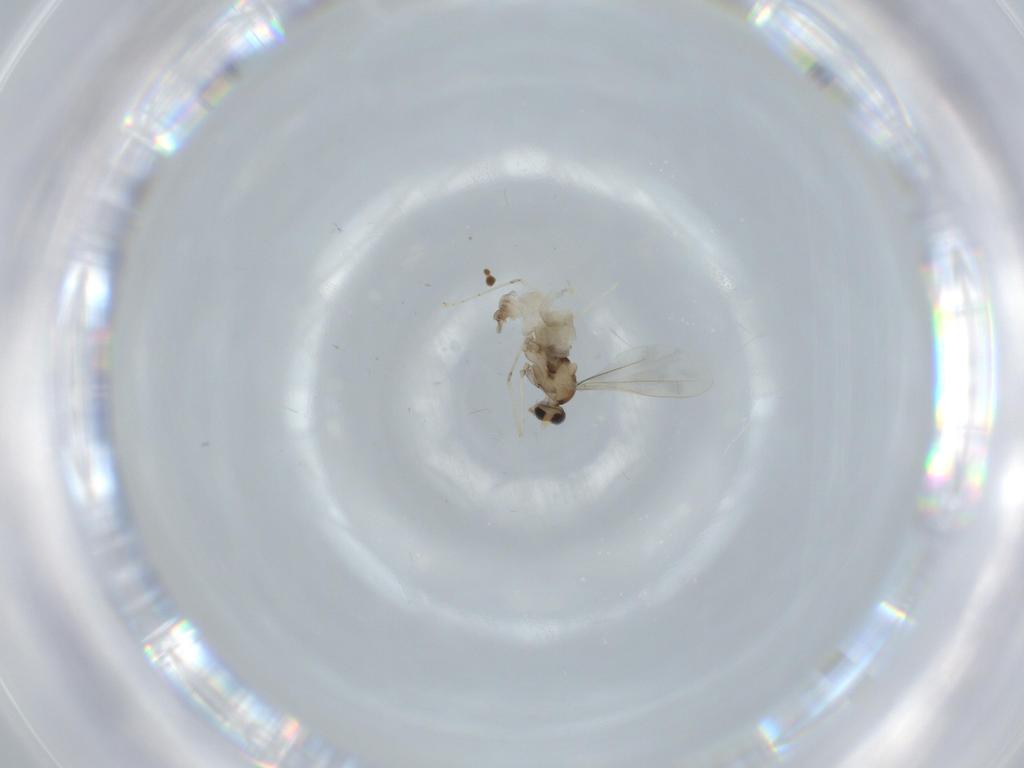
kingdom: Animalia
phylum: Arthropoda
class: Insecta
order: Diptera
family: Cecidomyiidae
